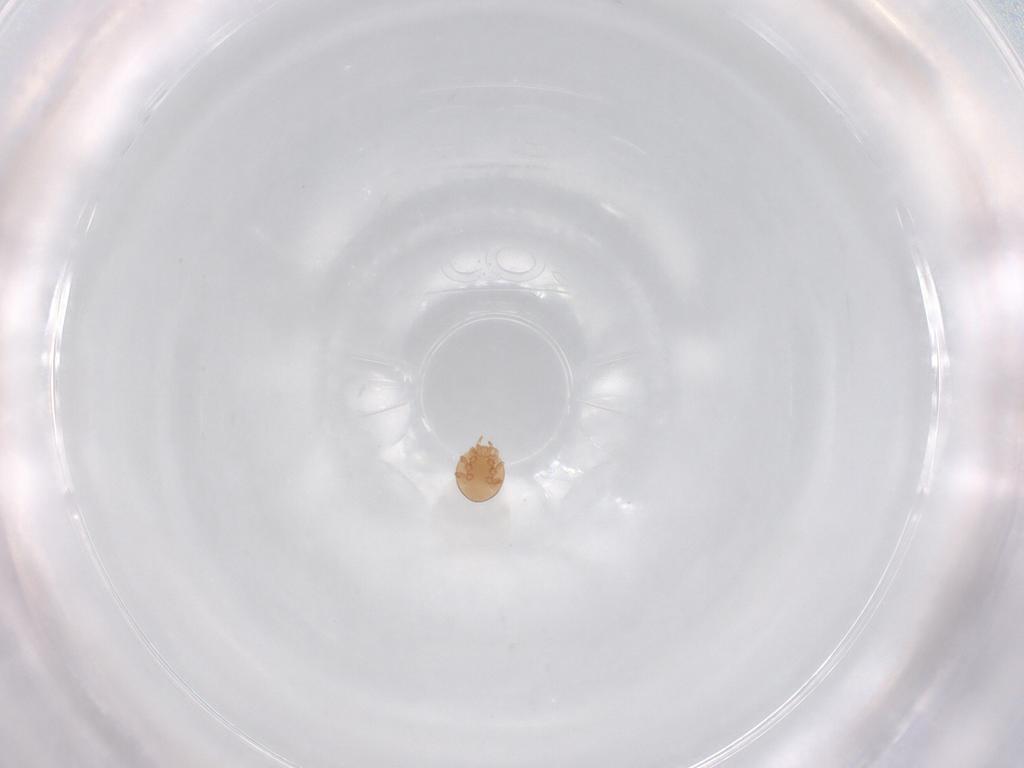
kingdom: Animalia
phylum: Arthropoda
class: Arachnida
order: Mesostigmata
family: Trematuridae
